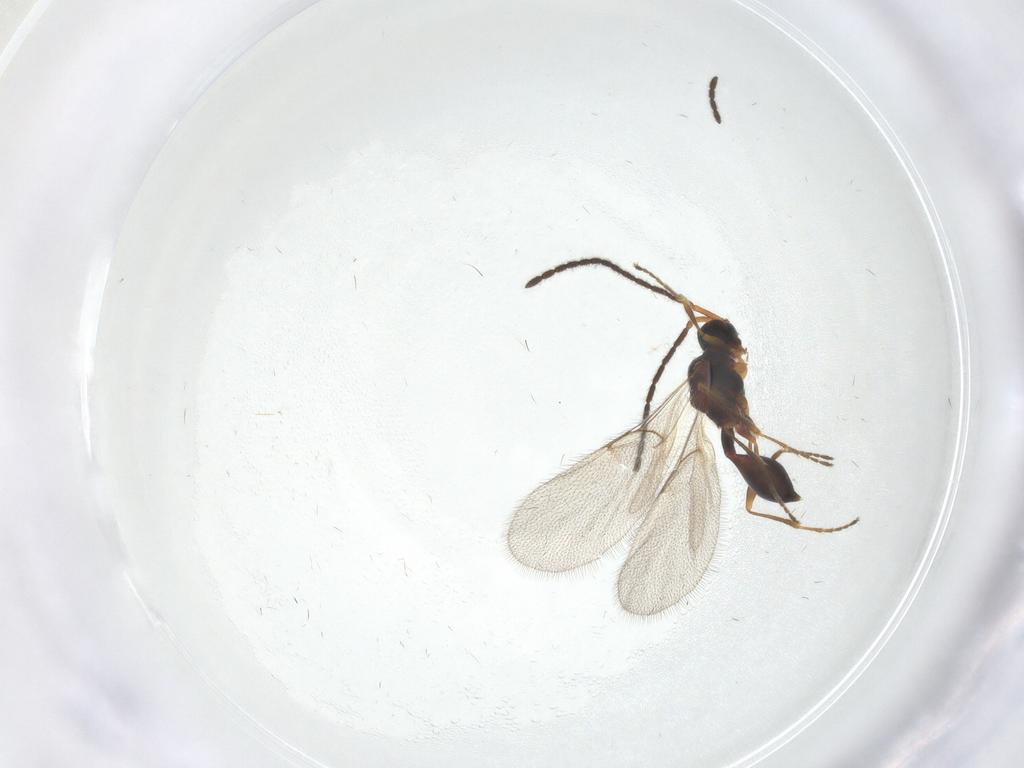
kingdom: Animalia
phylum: Arthropoda
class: Insecta
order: Hymenoptera
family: Diapriidae
